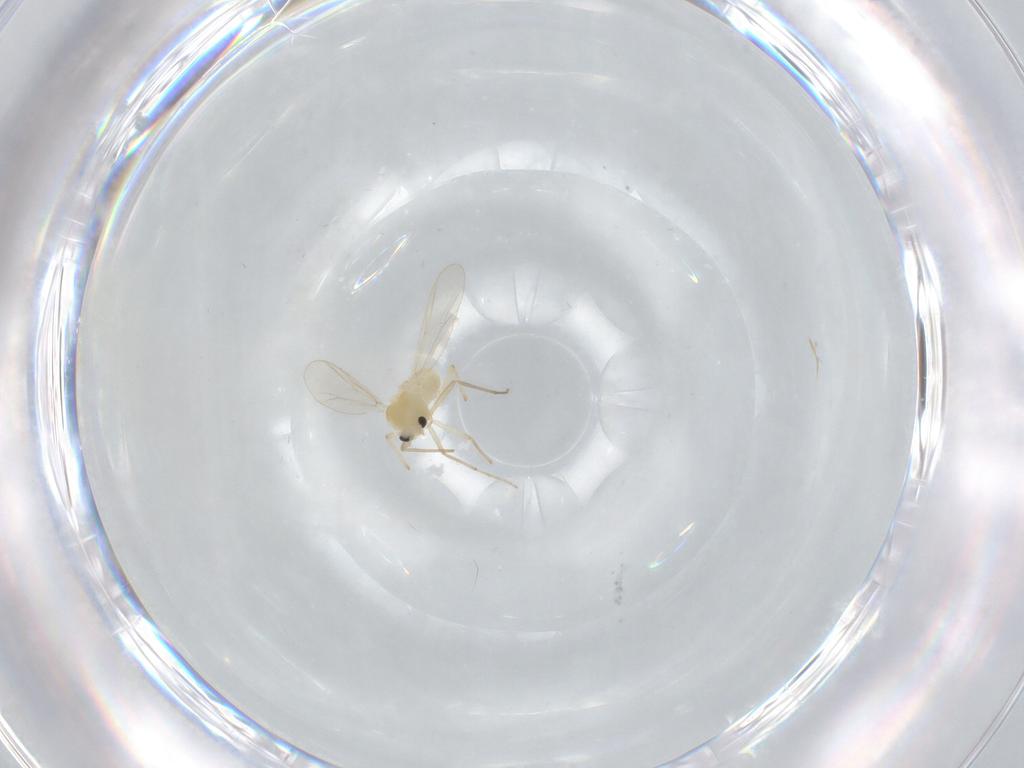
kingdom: Animalia
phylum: Arthropoda
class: Insecta
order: Diptera
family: Chironomidae
